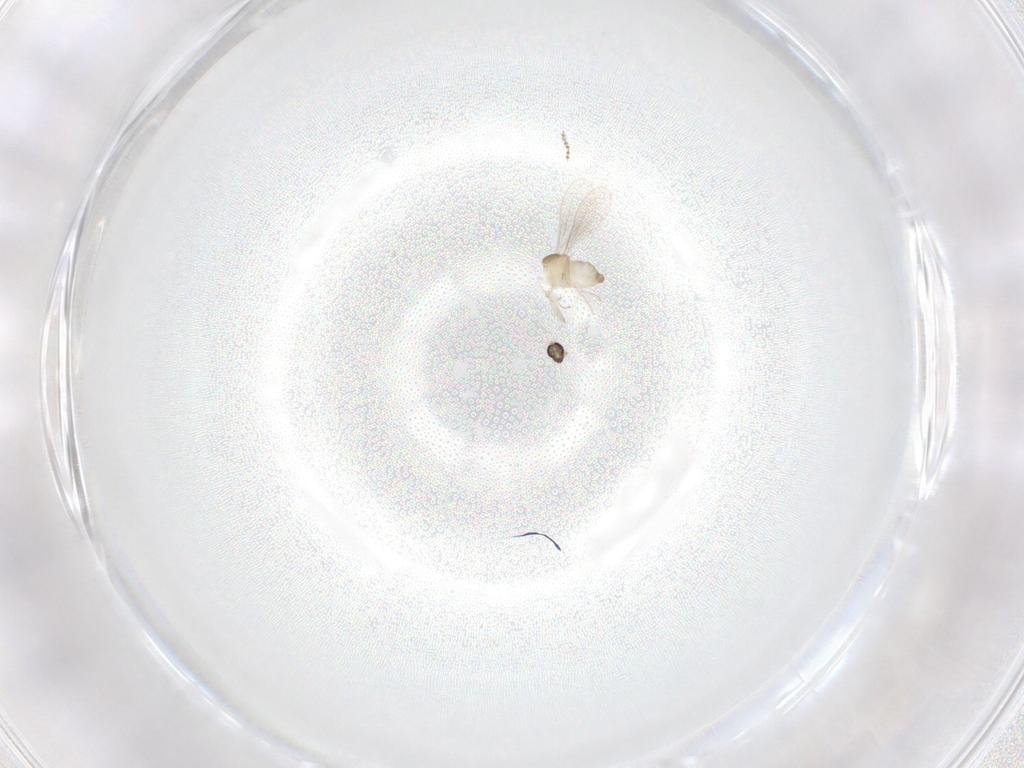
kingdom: Animalia
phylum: Arthropoda
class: Insecta
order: Diptera
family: Cecidomyiidae
